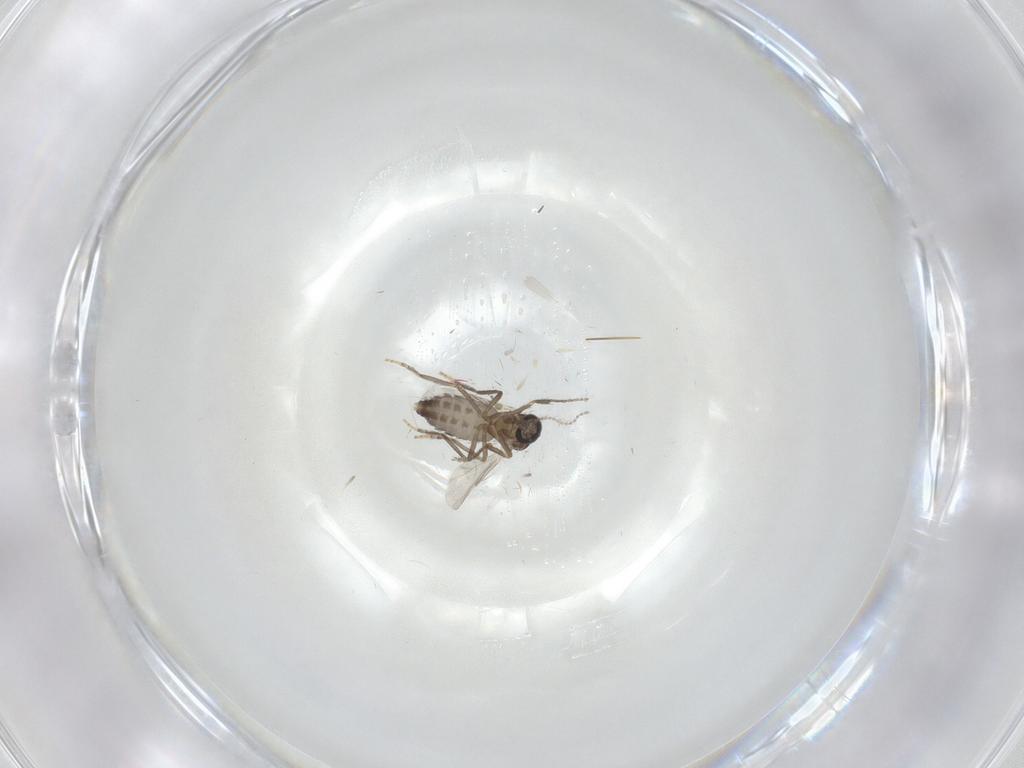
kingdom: Animalia
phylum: Arthropoda
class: Insecta
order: Diptera
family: Ceratopogonidae
